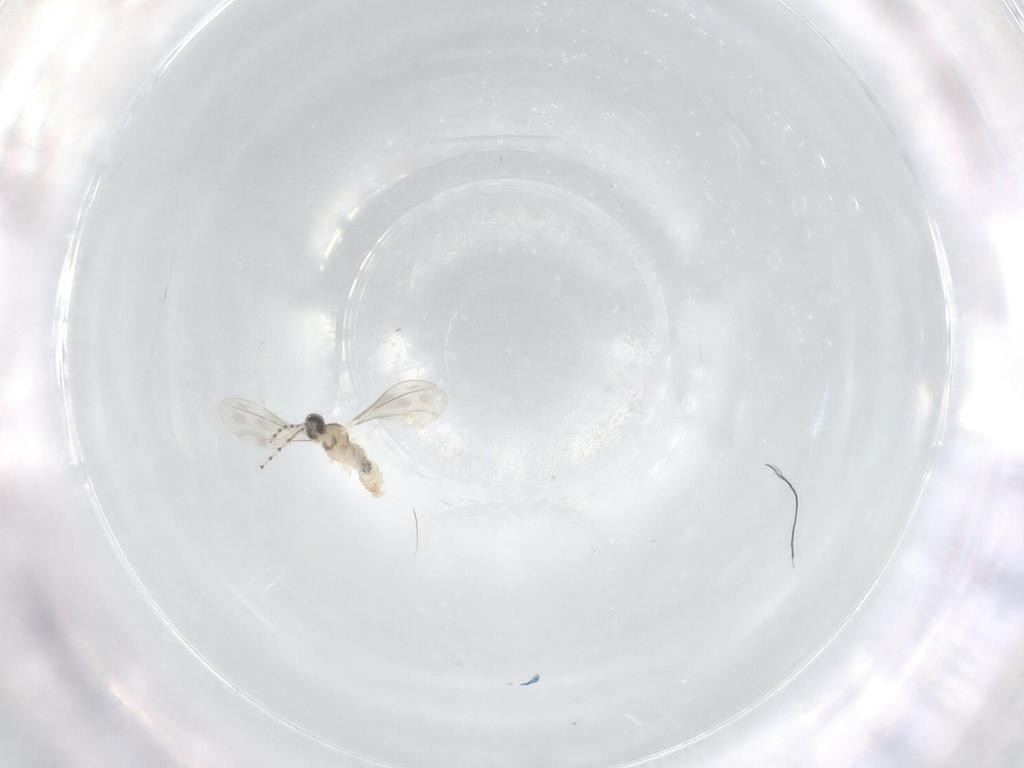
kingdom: Animalia
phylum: Arthropoda
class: Insecta
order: Diptera
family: Cecidomyiidae
